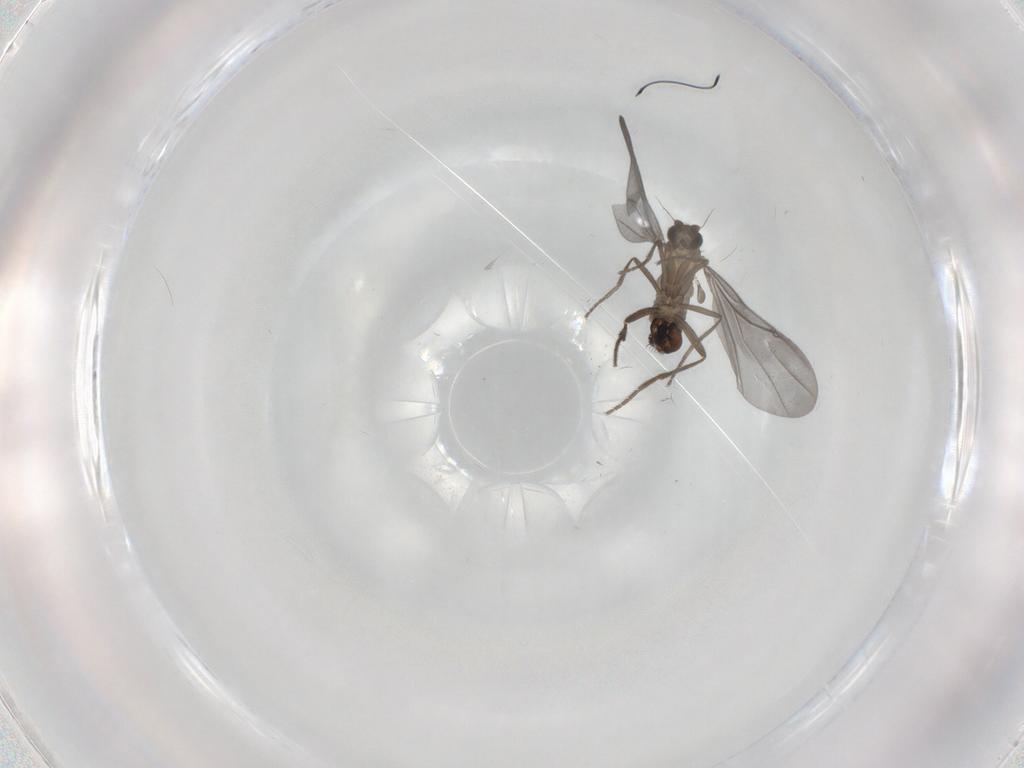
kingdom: Animalia
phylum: Arthropoda
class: Insecta
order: Diptera
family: Phoridae
